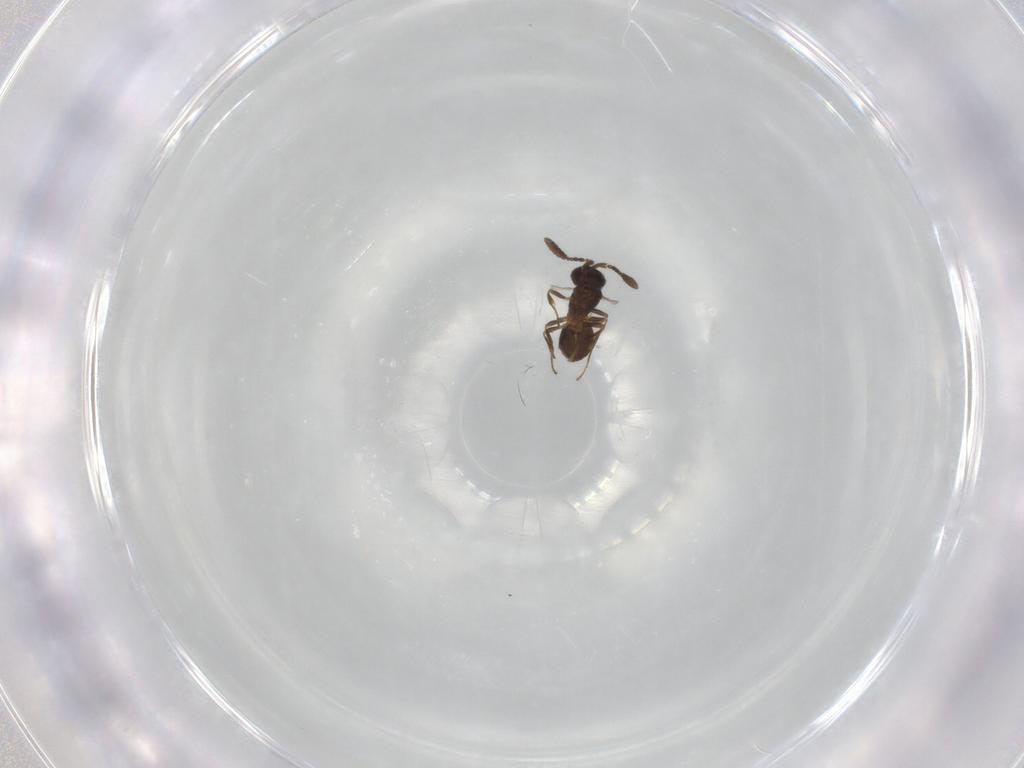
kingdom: Animalia
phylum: Arthropoda
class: Insecta
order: Hymenoptera
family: Scelionidae
